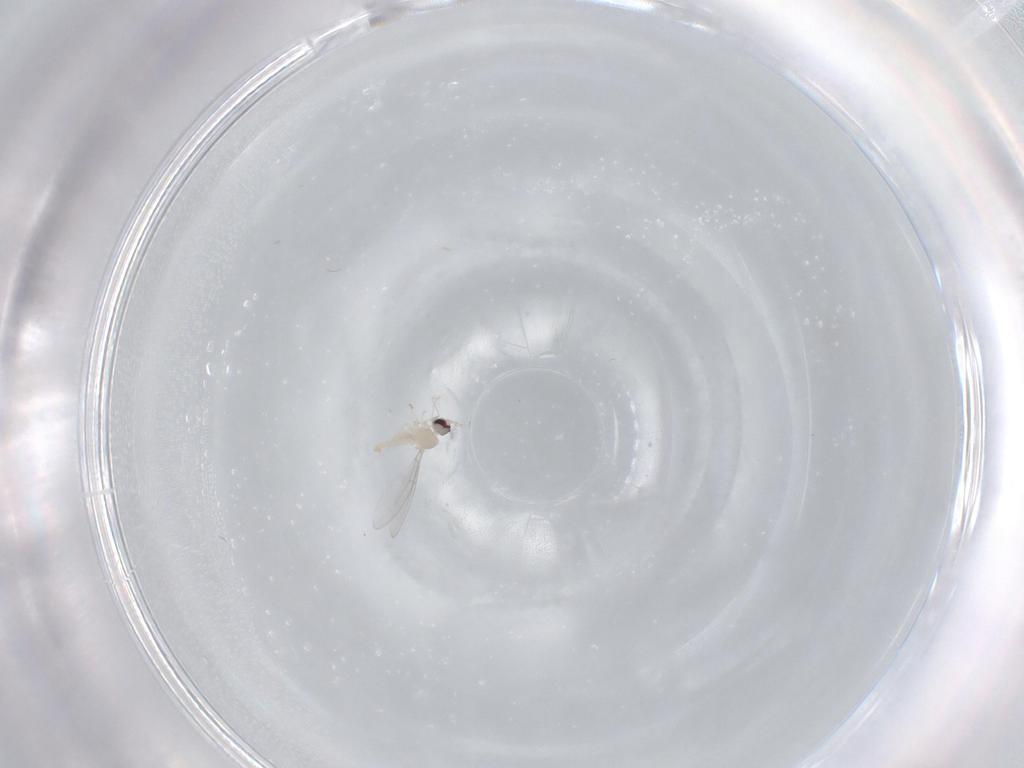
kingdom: Animalia
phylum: Arthropoda
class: Insecta
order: Diptera
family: Cecidomyiidae
